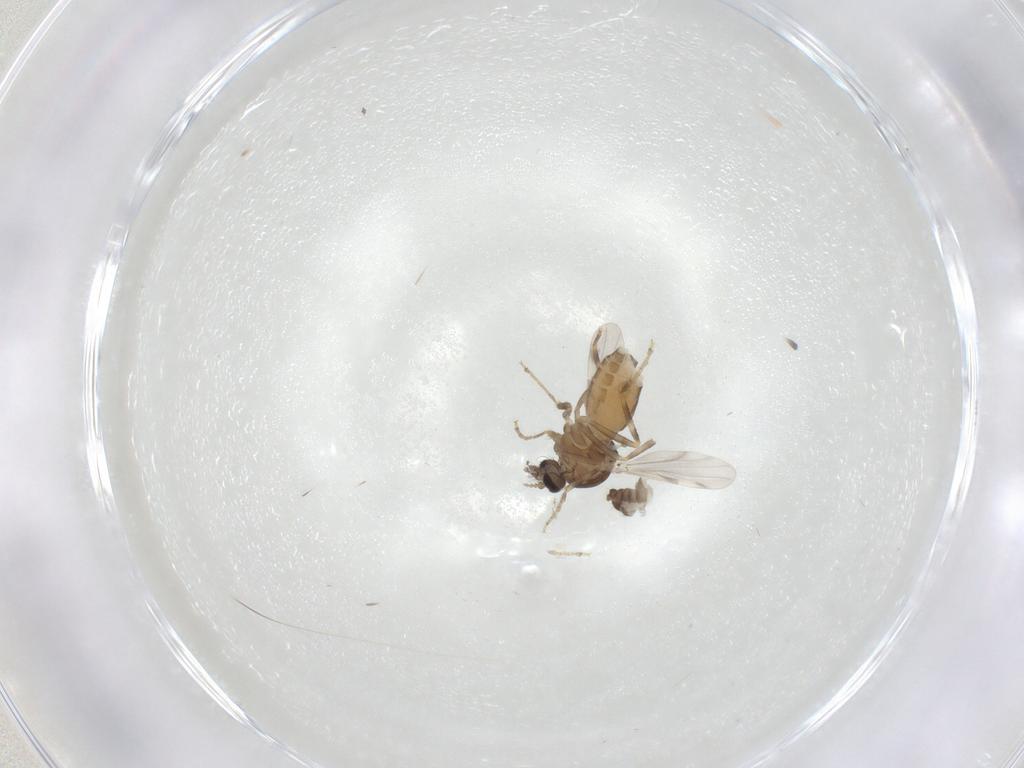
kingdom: Animalia
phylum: Arthropoda
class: Insecta
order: Diptera
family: Ceratopogonidae
